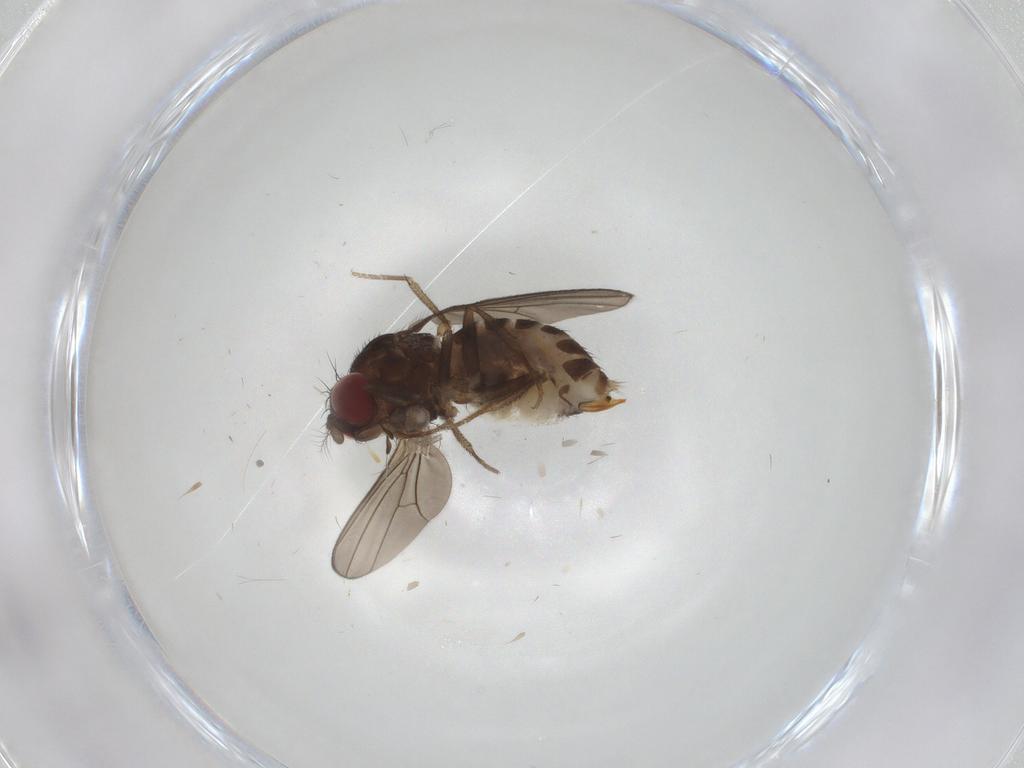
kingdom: Animalia
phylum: Arthropoda
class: Insecta
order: Diptera
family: Drosophilidae
